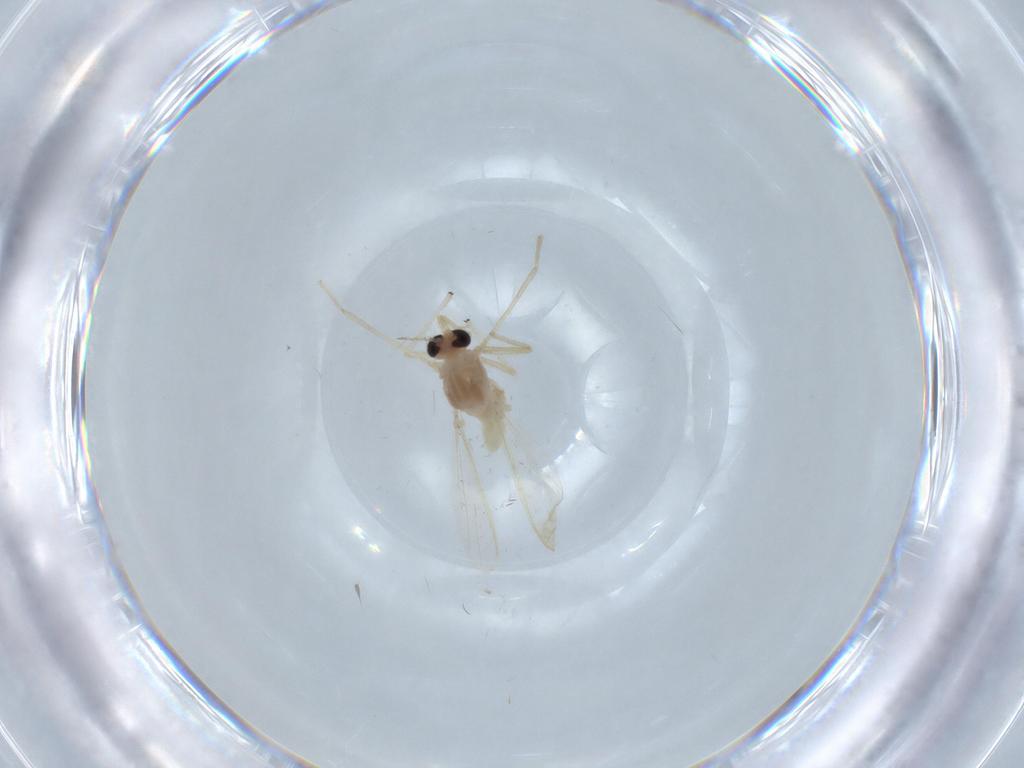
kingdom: Animalia
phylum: Arthropoda
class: Insecta
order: Diptera
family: Chironomidae
